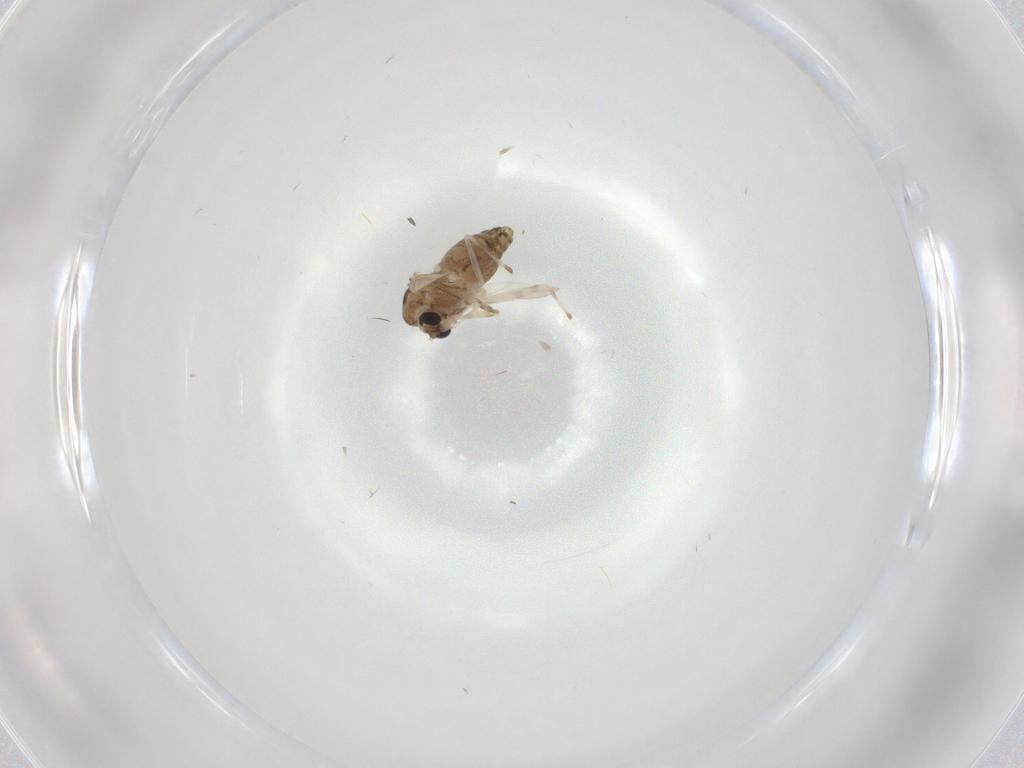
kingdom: Animalia
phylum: Arthropoda
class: Insecta
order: Diptera
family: Chironomidae
